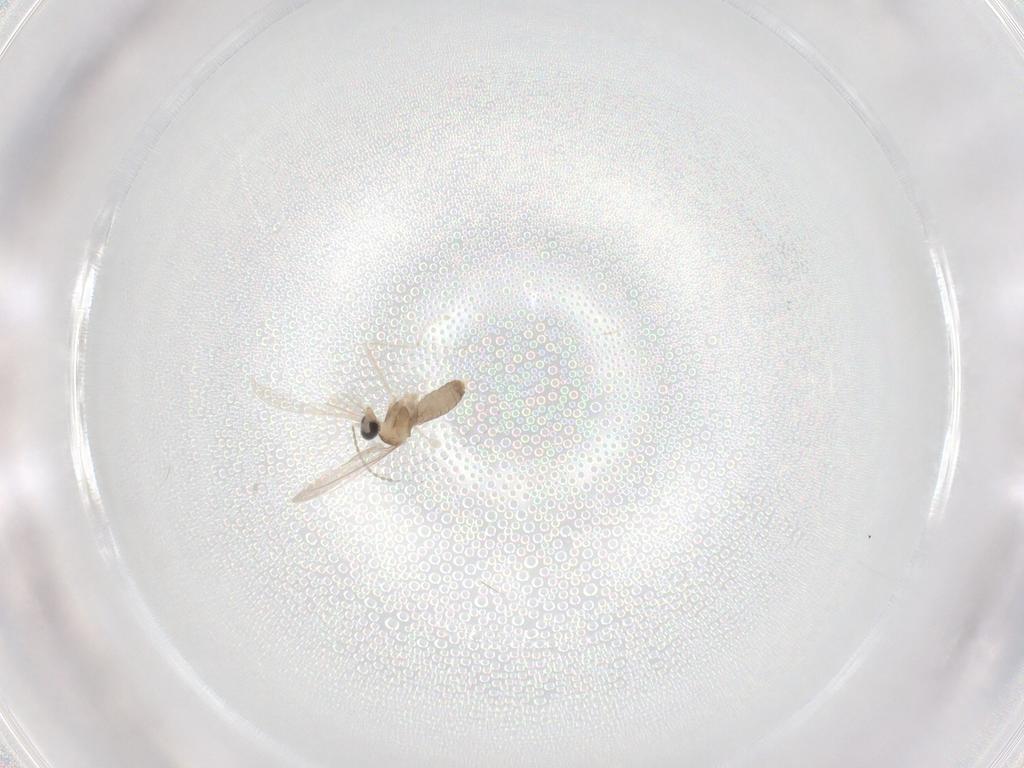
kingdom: Animalia
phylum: Arthropoda
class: Insecta
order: Diptera
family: Cecidomyiidae
